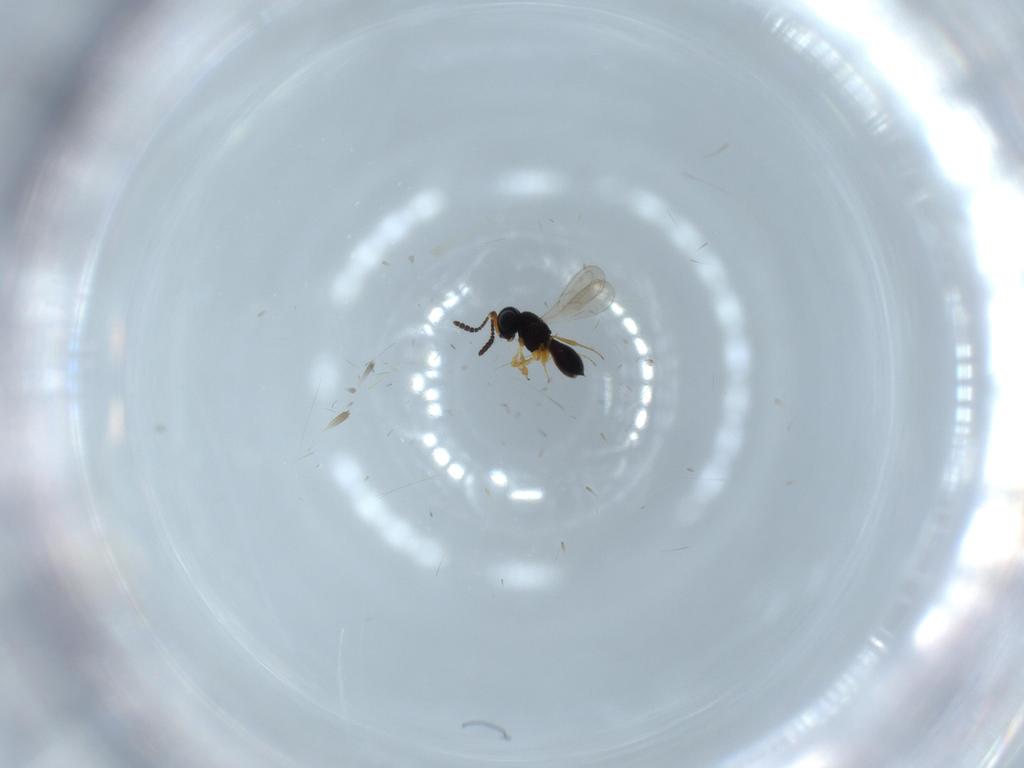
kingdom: Animalia
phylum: Arthropoda
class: Insecta
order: Hymenoptera
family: Scelionidae
